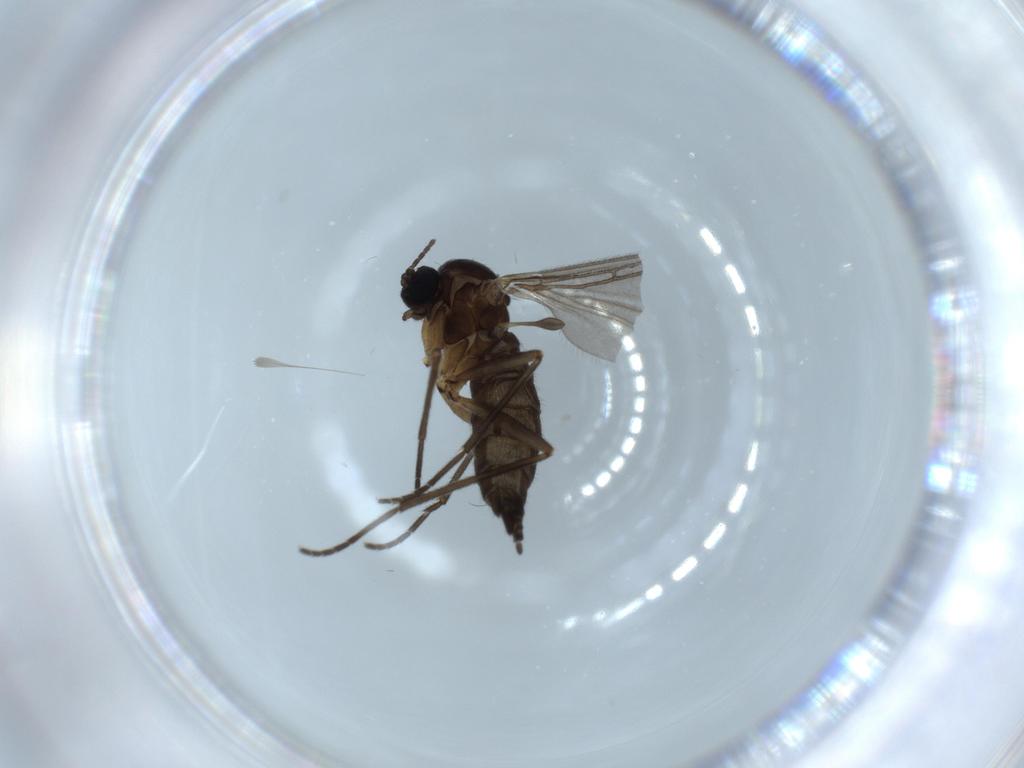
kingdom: Animalia
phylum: Arthropoda
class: Insecta
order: Diptera
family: Sciaridae
